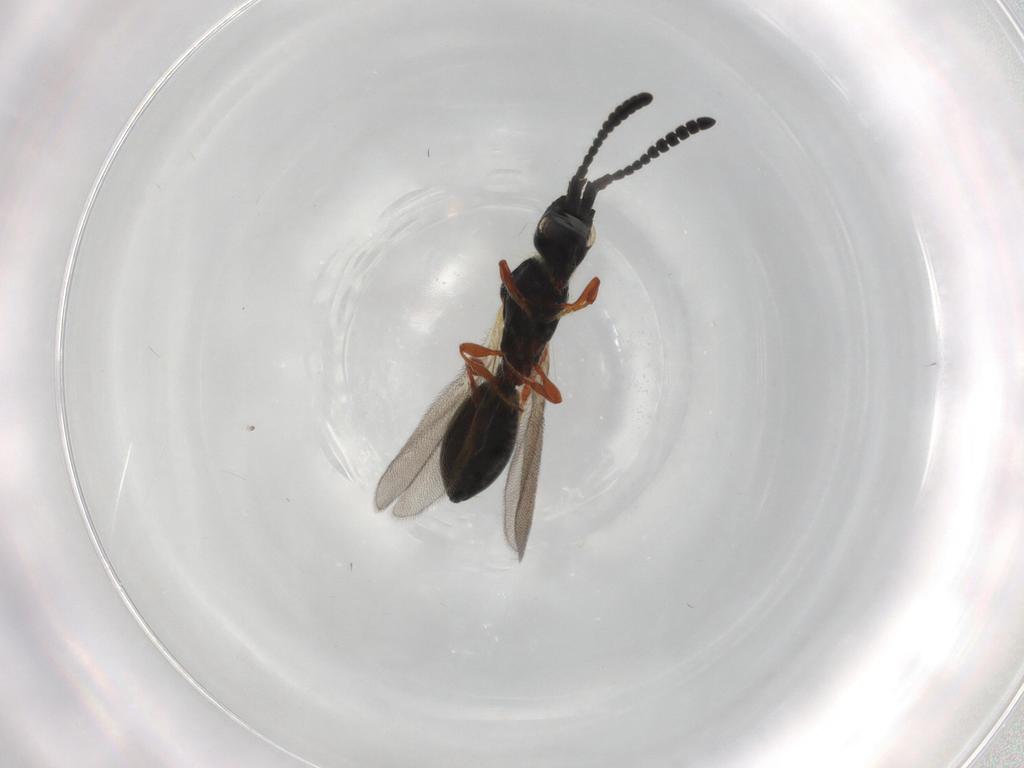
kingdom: Animalia
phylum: Arthropoda
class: Insecta
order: Hymenoptera
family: Diapriidae
